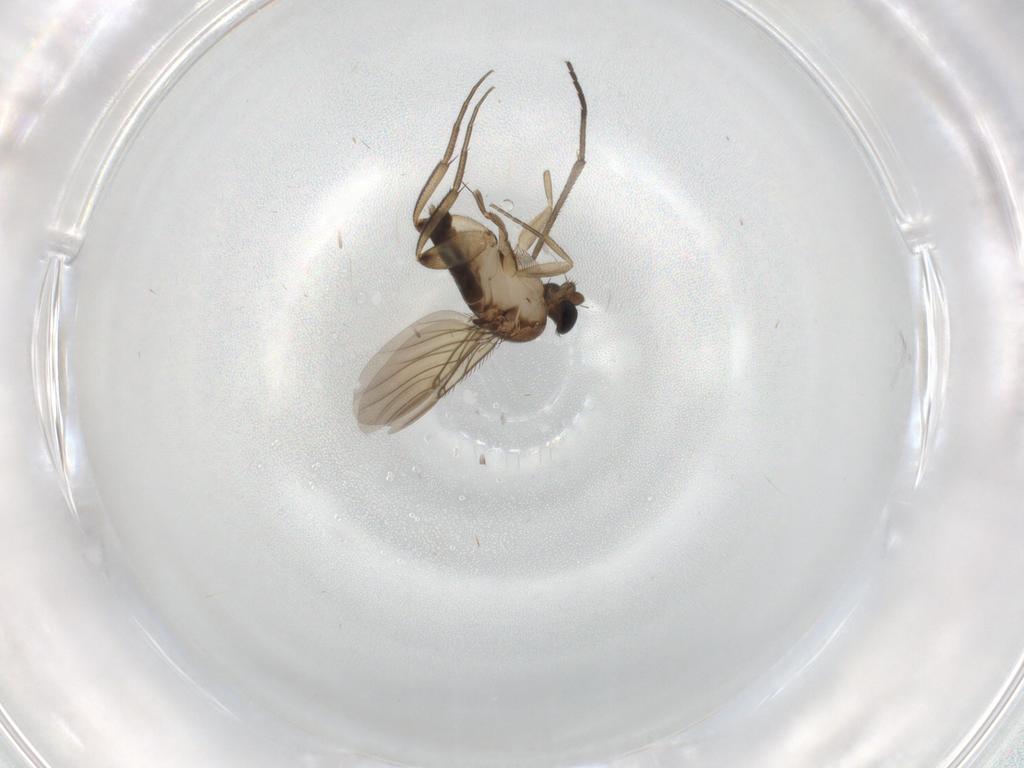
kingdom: Animalia
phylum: Arthropoda
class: Insecta
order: Diptera
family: Phoridae
